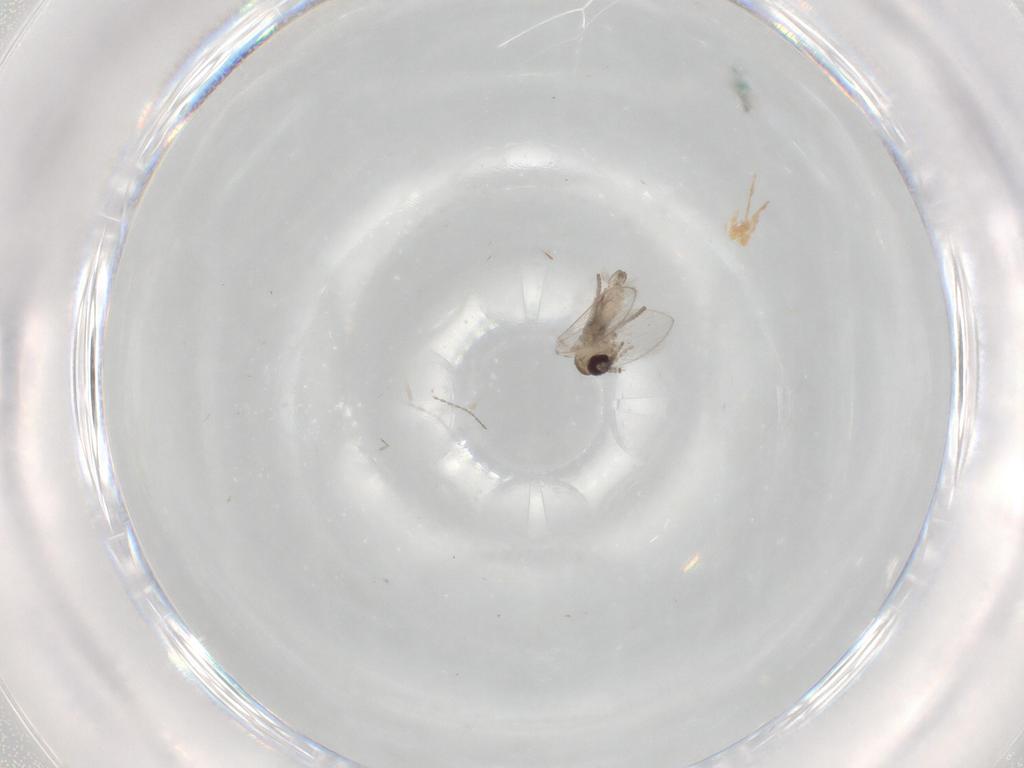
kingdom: Animalia
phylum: Arthropoda
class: Insecta
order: Diptera
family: Psychodidae
